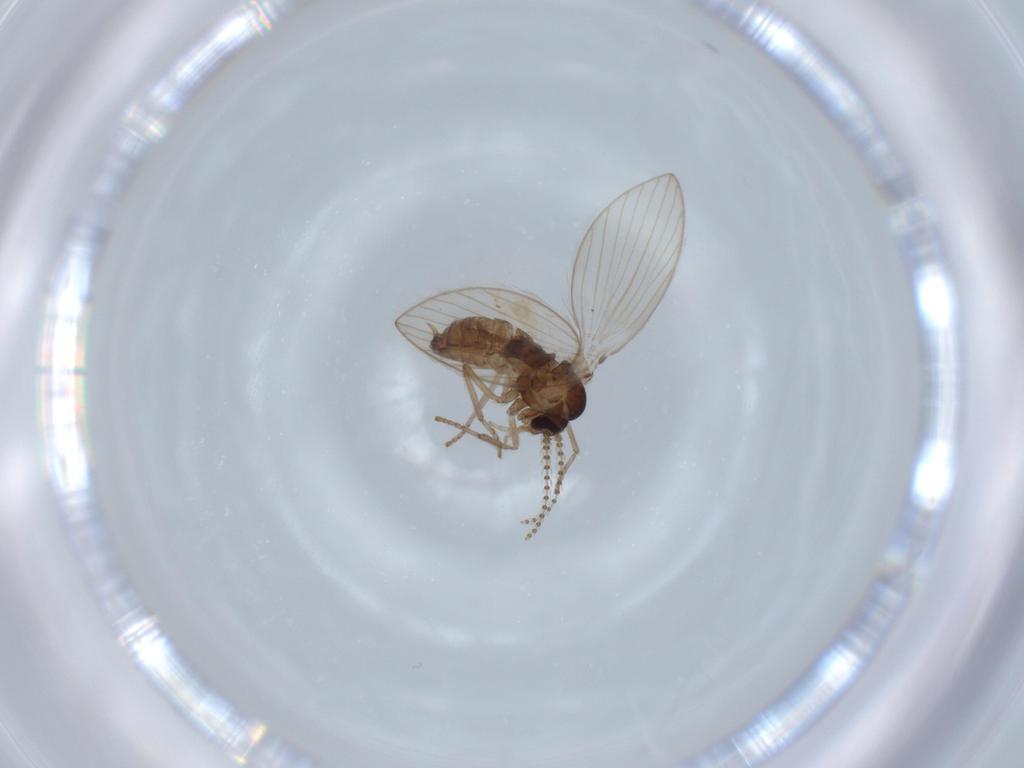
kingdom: Animalia
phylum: Arthropoda
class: Insecta
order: Diptera
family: Psychodidae
